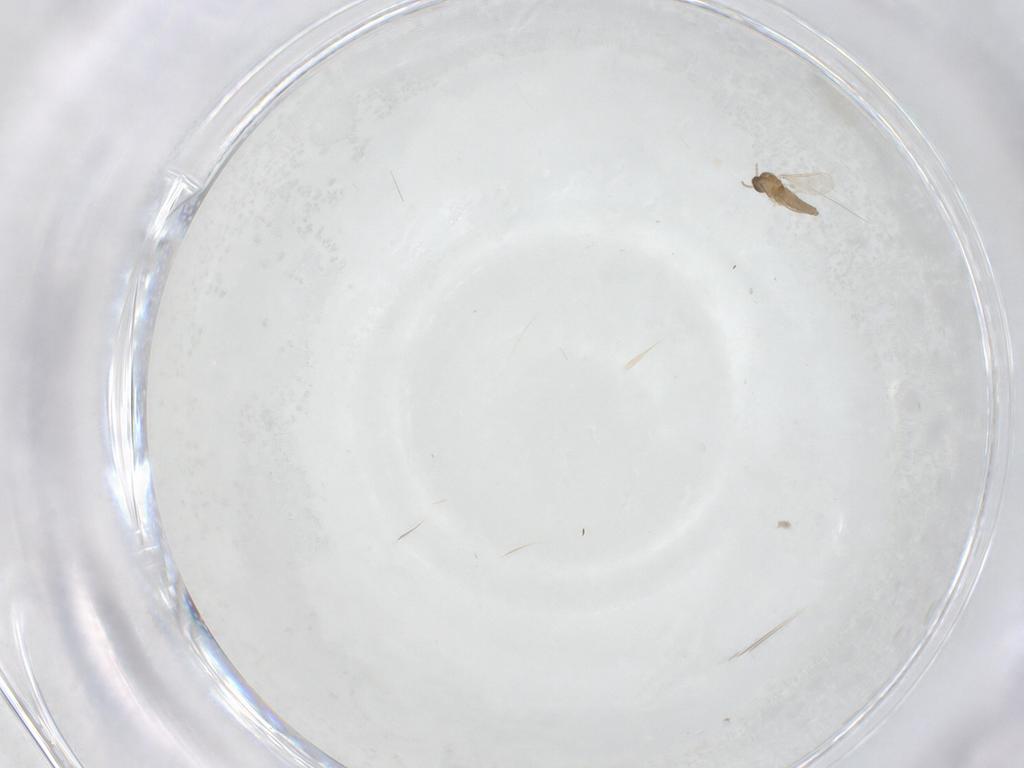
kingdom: Animalia
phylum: Arthropoda
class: Insecta
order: Diptera
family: Cecidomyiidae
